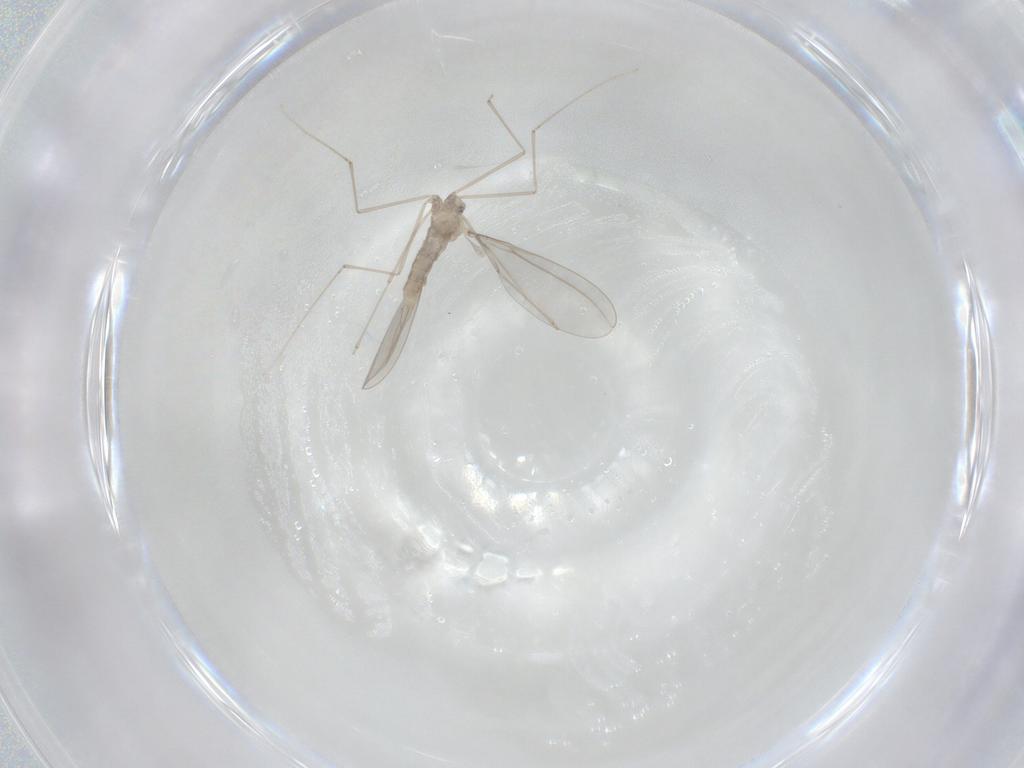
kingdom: Animalia
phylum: Arthropoda
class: Insecta
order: Diptera
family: Cecidomyiidae
